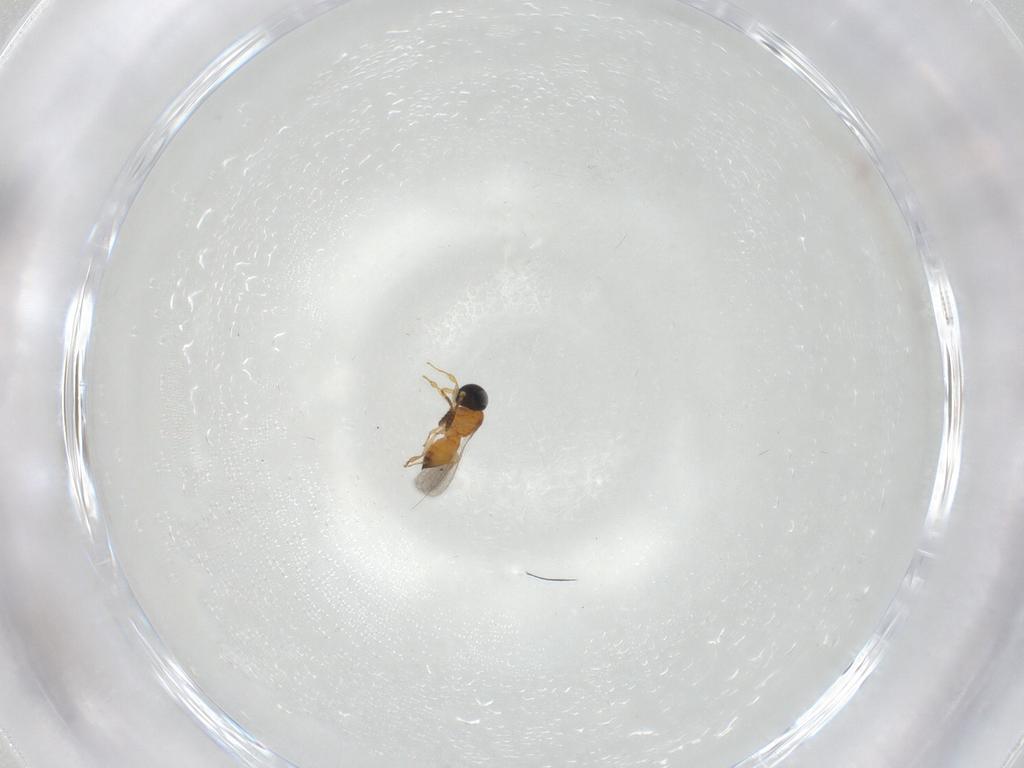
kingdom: Animalia
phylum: Arthropoda
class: Insecta
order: Hymenoptera
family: Scelionidae
